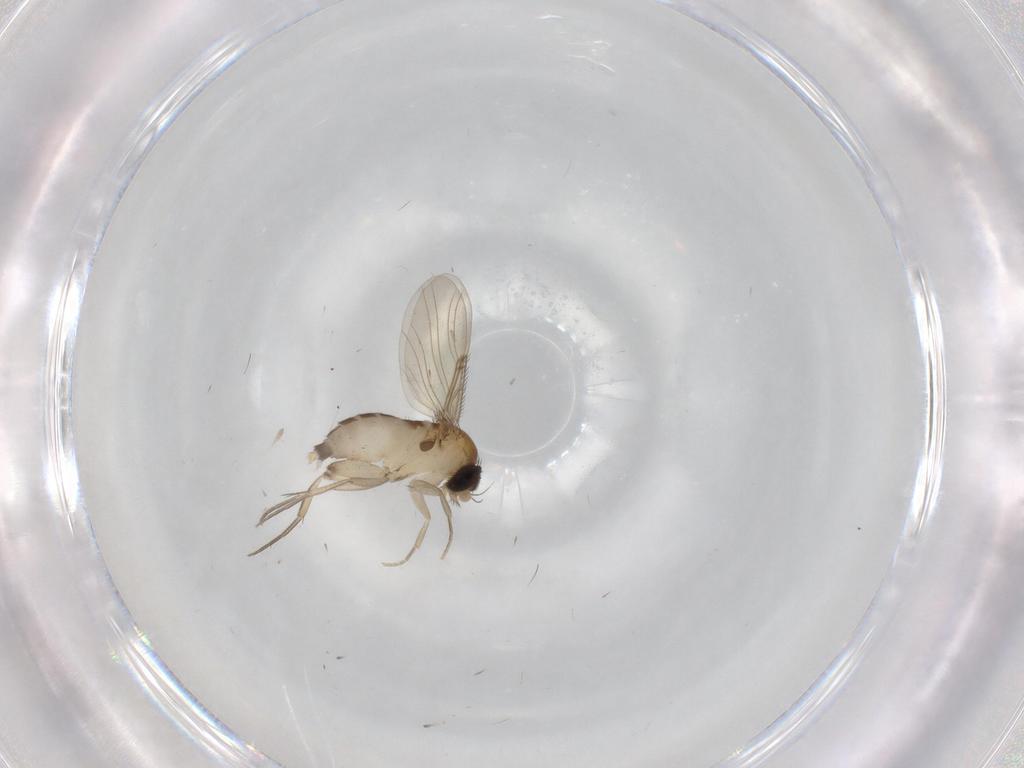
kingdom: Animalia
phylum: Arthropoda
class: Insecta
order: Diptera
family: Phoridae
